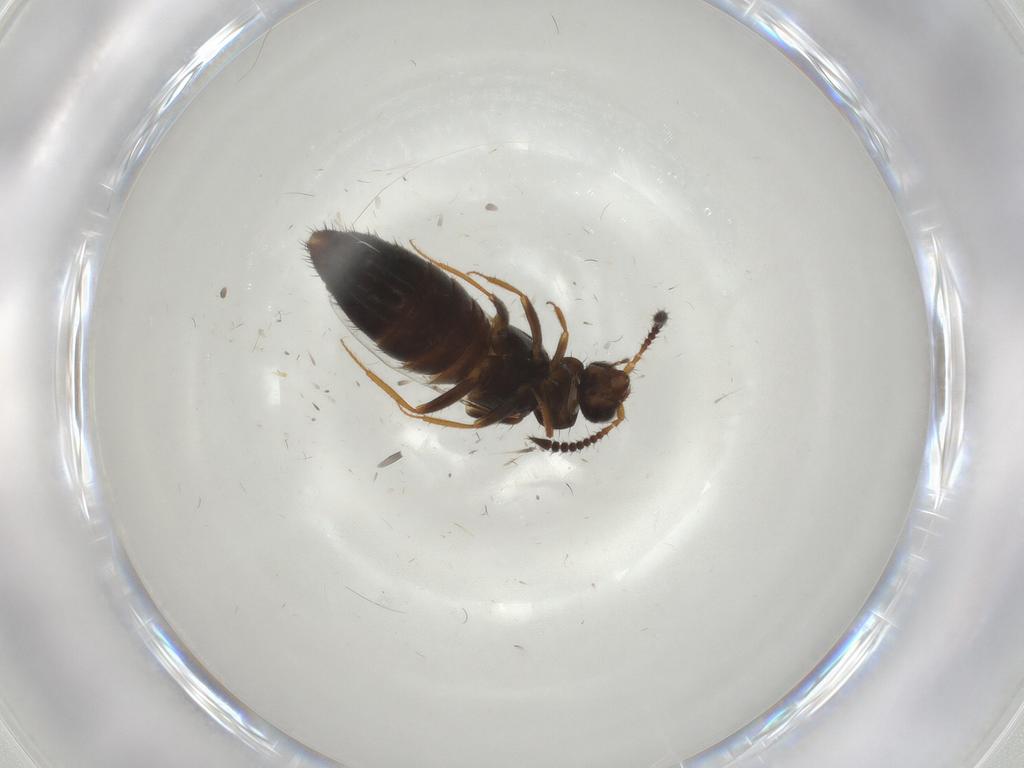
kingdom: Animalia
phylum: Arthropoda
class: Insecta
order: Coleoptera
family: Staphylinidae
